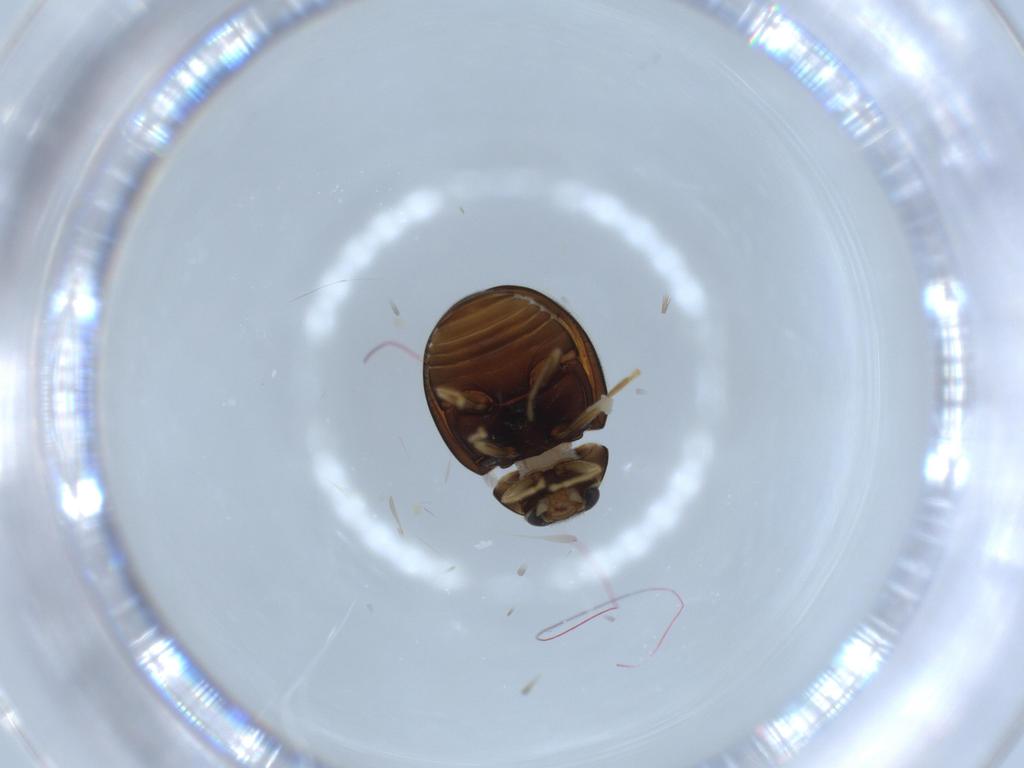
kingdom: Animalia
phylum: Arthropoda
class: Insecta
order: Coleoptera
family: Coccinellidae
